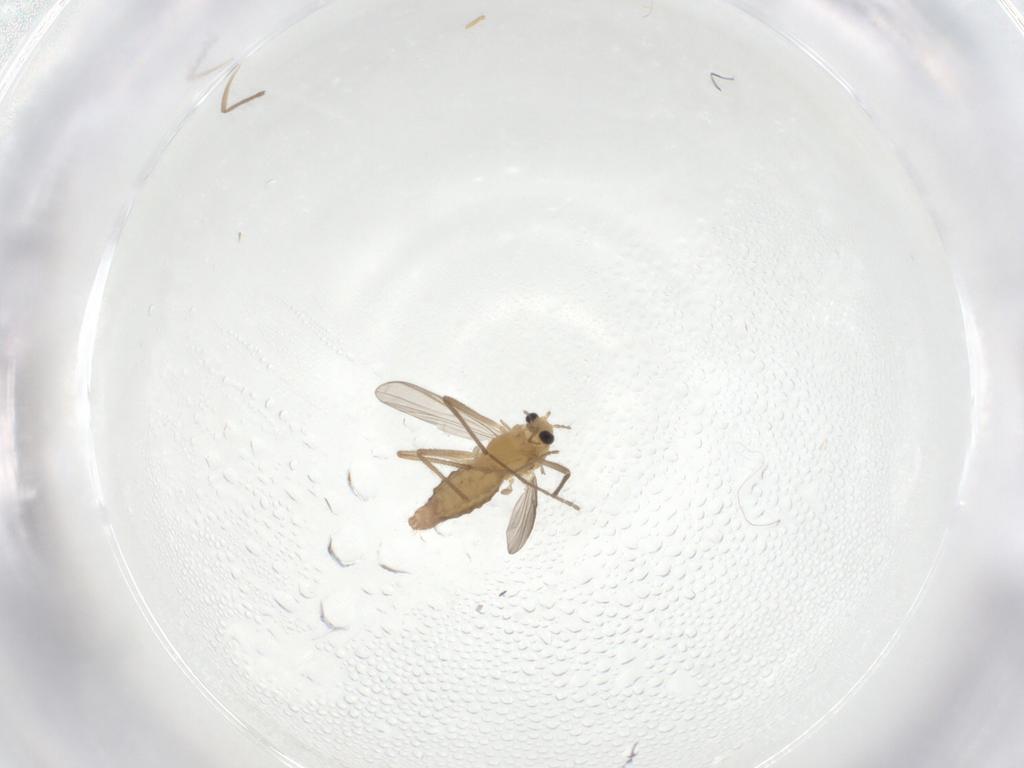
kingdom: Animalia
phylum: Arthropoda
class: Insecta
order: Diptera
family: Chironomidae
